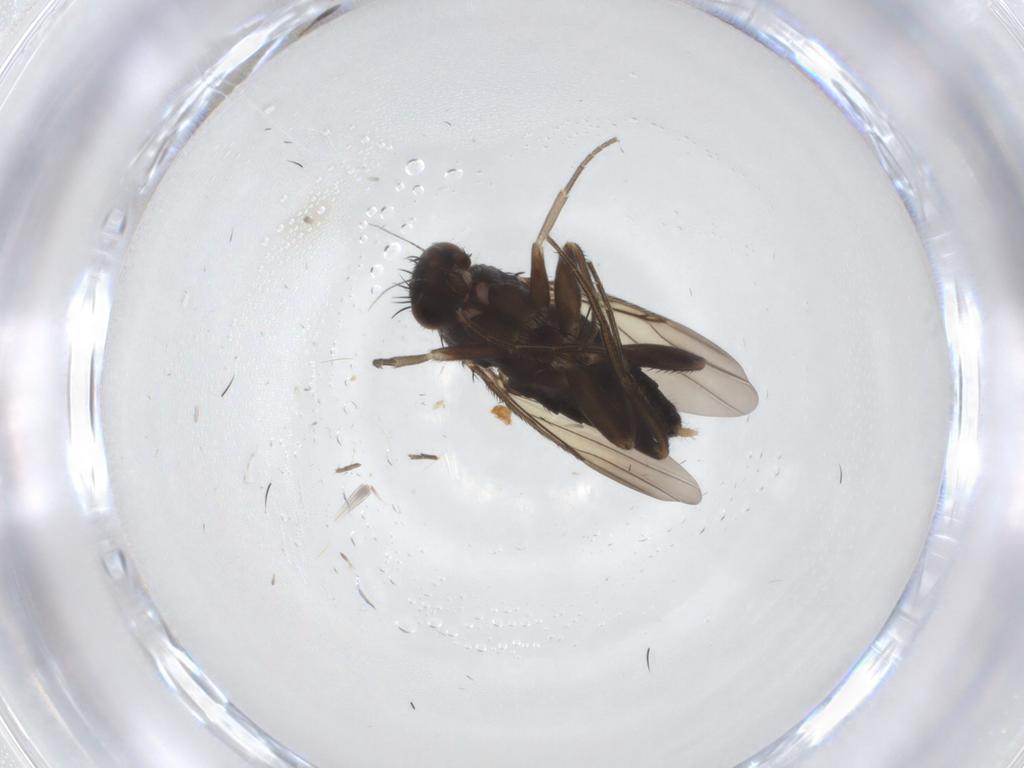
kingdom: Animalia
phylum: Arthropoda
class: Insecta
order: Diptera
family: Phoridae
